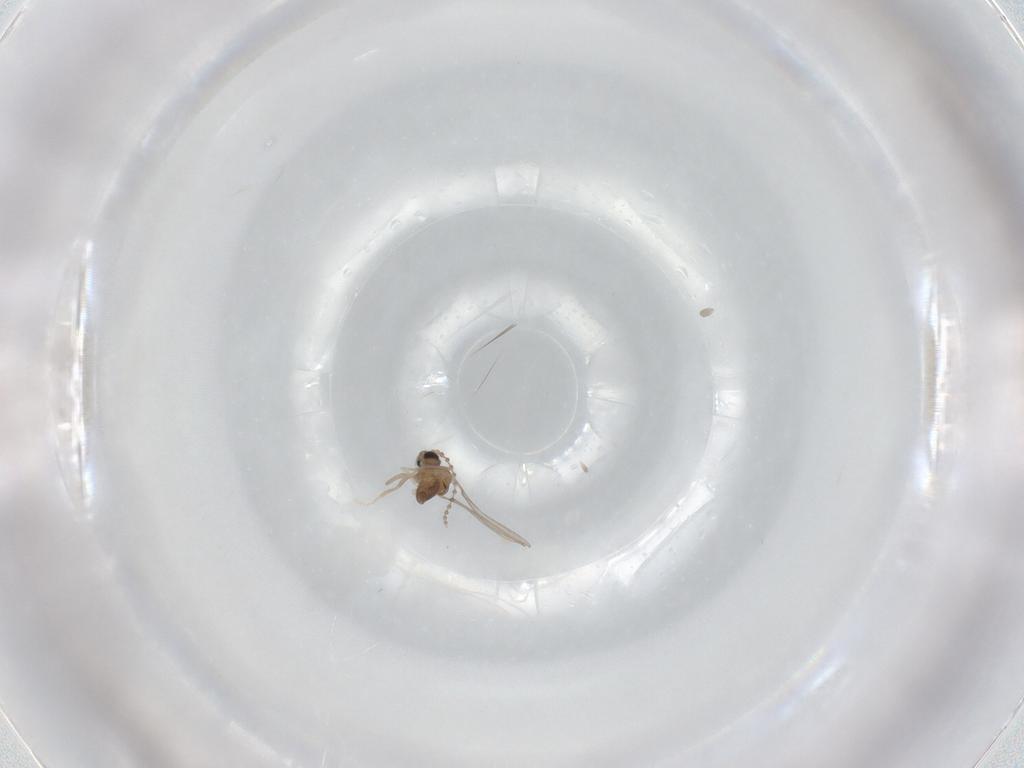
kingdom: Animalia
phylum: Arthropoda
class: Insecta
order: Diptera
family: Cecidomyiidae
